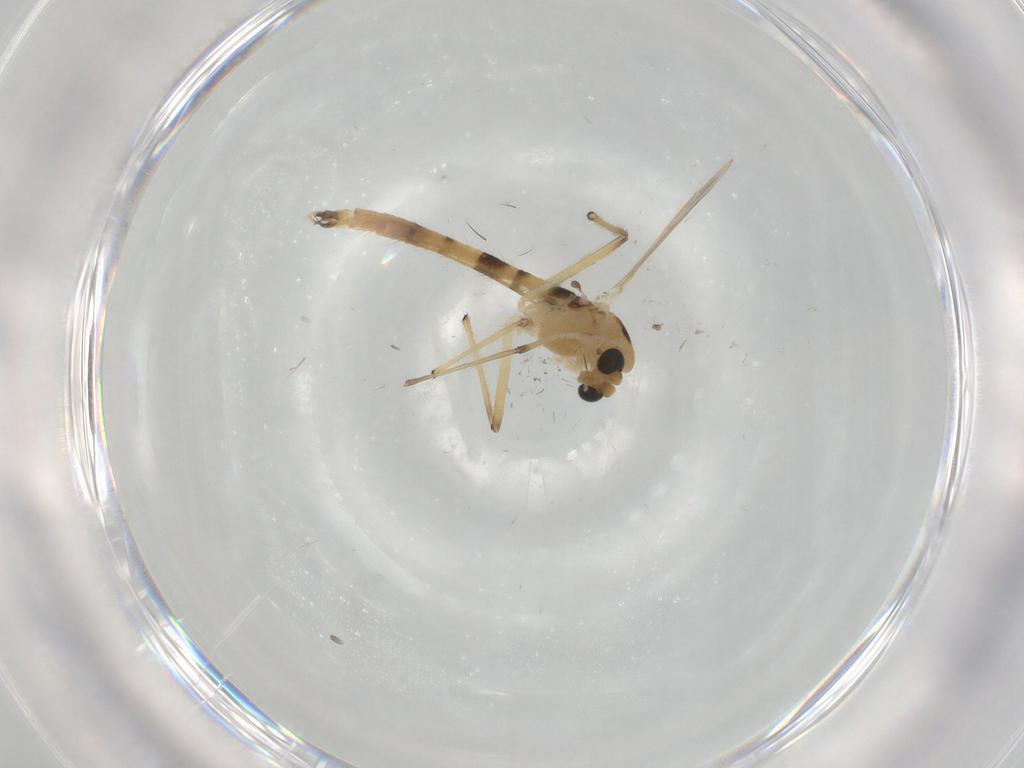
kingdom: Animalia
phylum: Arthropoda
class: Insecta
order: Diptera
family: Chironomidae
